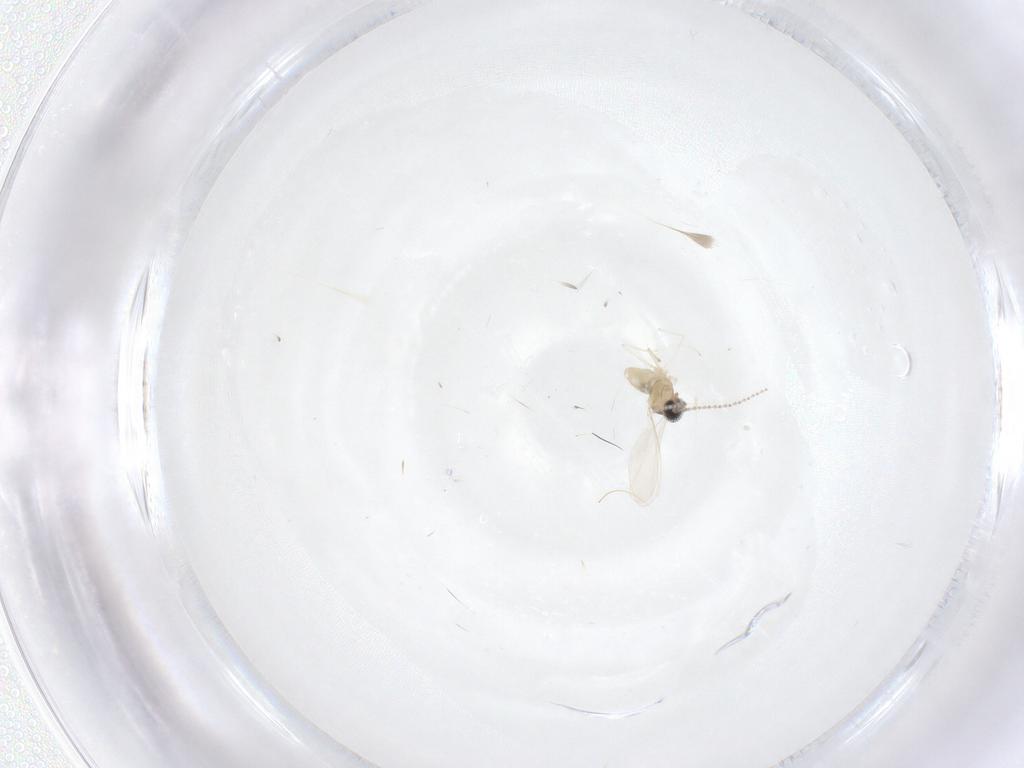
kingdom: Animalia
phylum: Arthropoda
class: Insecta
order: Diptera
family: Cecidomyiidae
